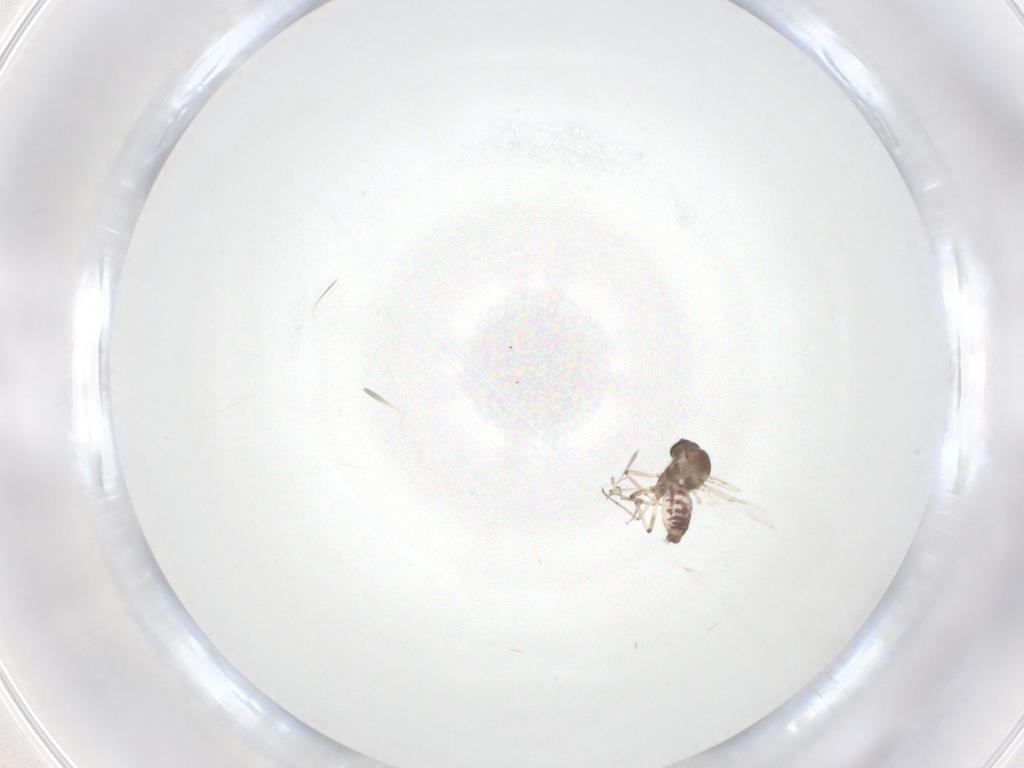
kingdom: Animalia
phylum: Arthropoda
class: Insecta
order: Diptera
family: Ceratopogonidae
